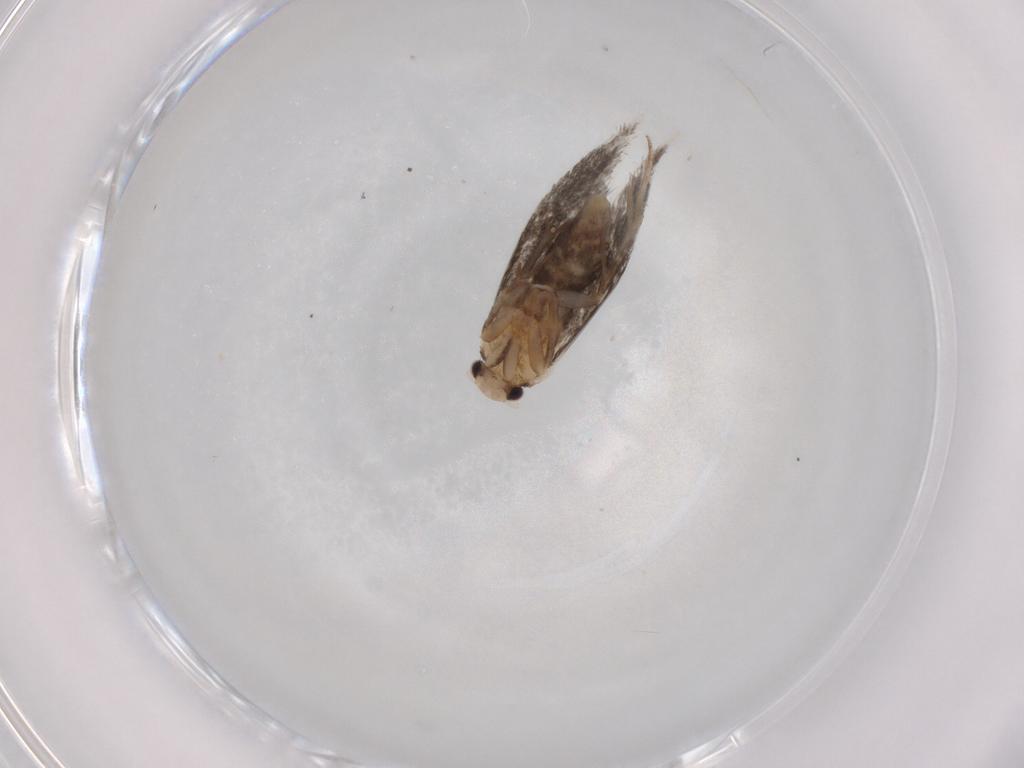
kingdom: Animalia
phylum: Arthropoda
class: Insecta
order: Lepidoptera
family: Tineidae
